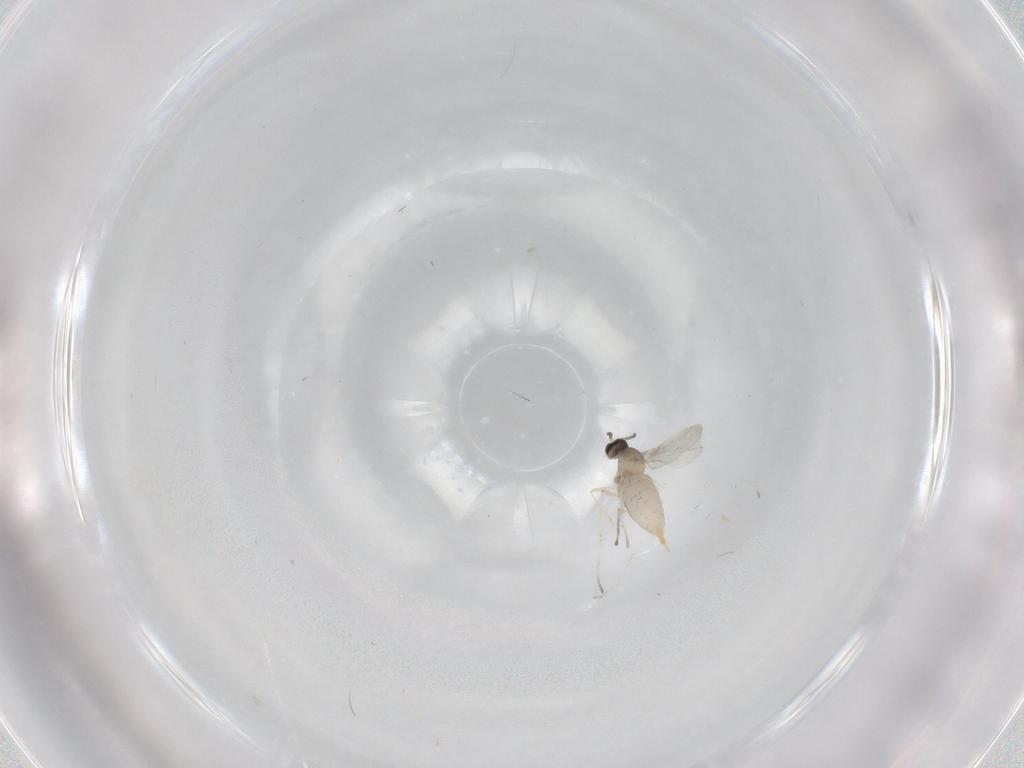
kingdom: Animalia
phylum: Arthropoda
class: Insecta
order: Diptera
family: Cecidomyiidae
